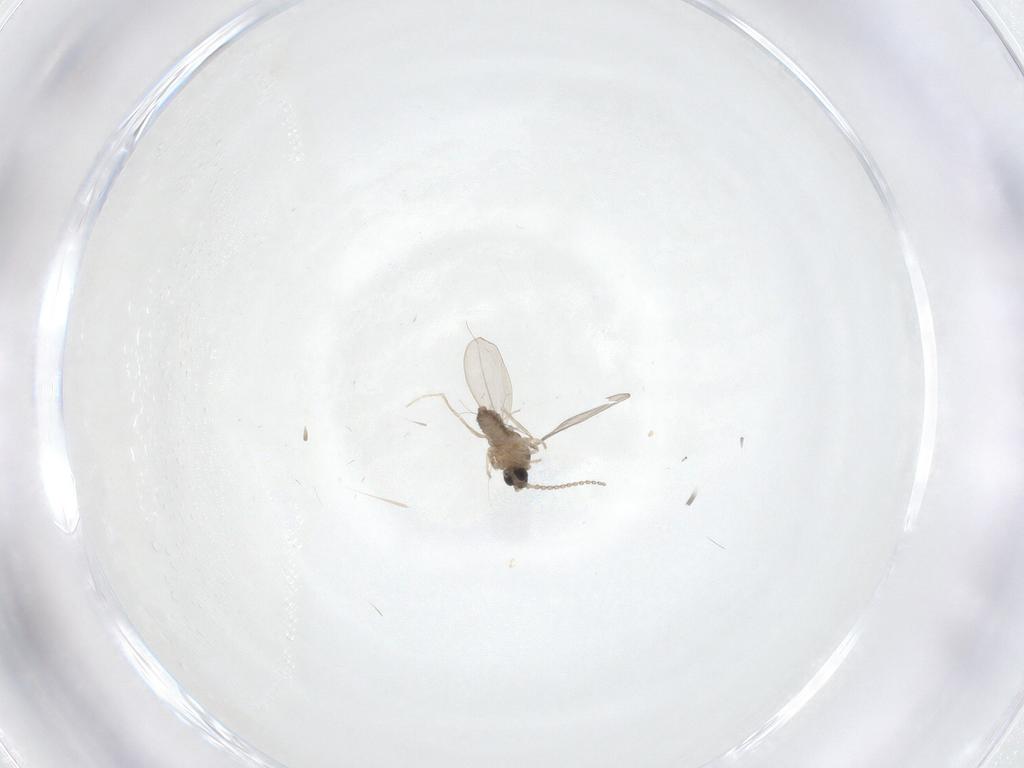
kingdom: Animalia
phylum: Arthropoda
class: Insecta
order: Diptera
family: Cecidomyiidae
